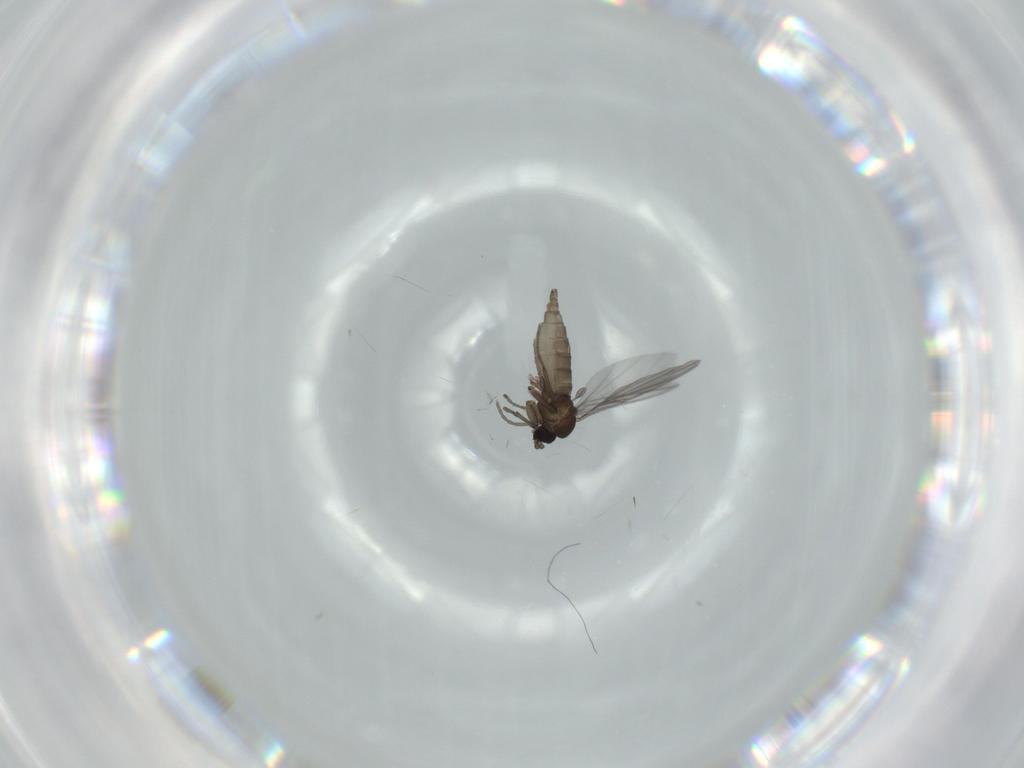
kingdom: Animalia
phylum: Arthropoda
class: Insecta
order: Diptera
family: Sciaridae
